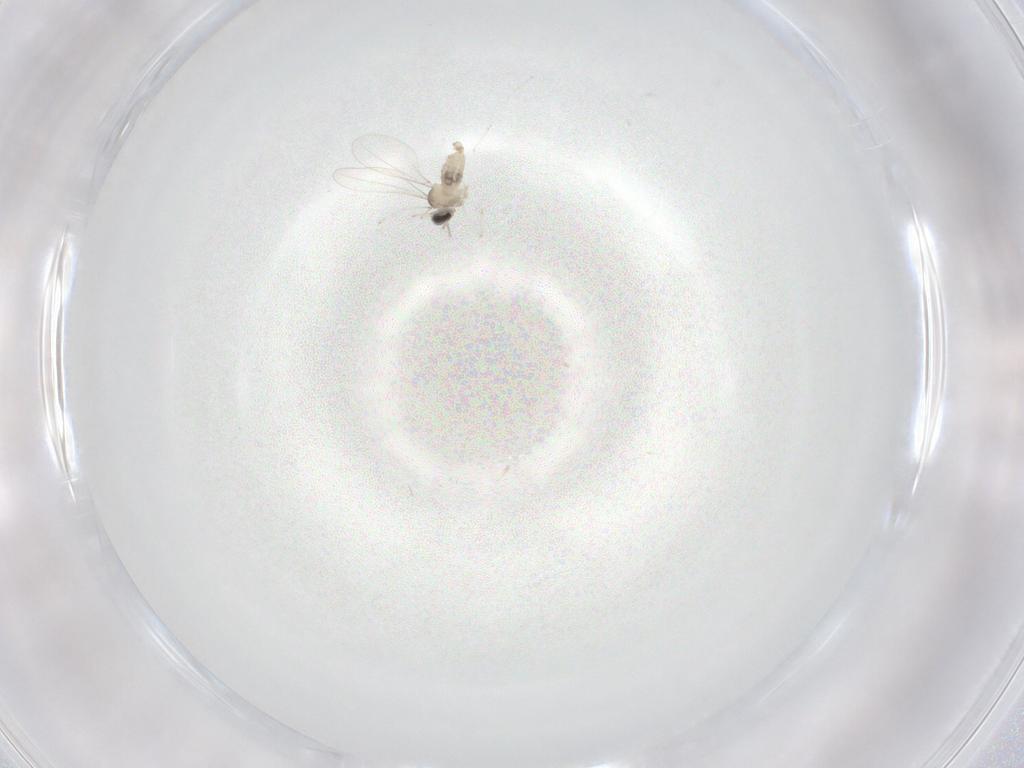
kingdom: Animalia
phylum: Arthropoda
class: Insecta
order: Diptera
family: Cecidomyiidae
